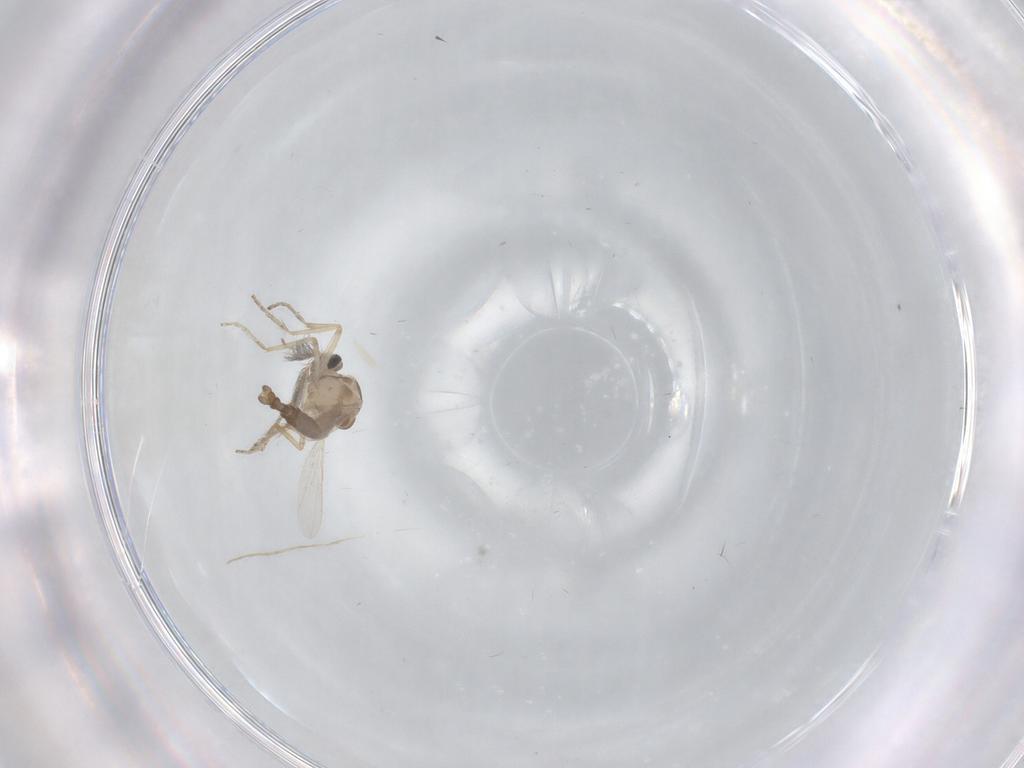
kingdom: Animalia
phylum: Arthropoda
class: Insecta
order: Diptera
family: Ceratopogonidae
